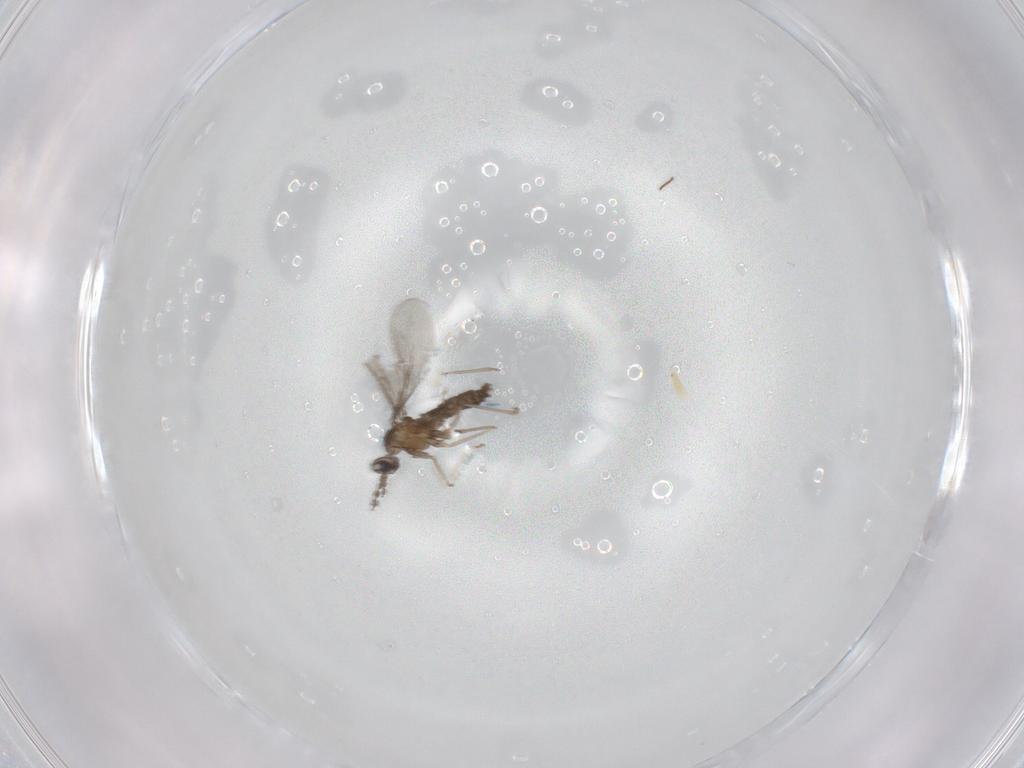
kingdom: Animalia
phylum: Arthropoda
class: Insecta
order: Diptera
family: Cecidomyiidae
